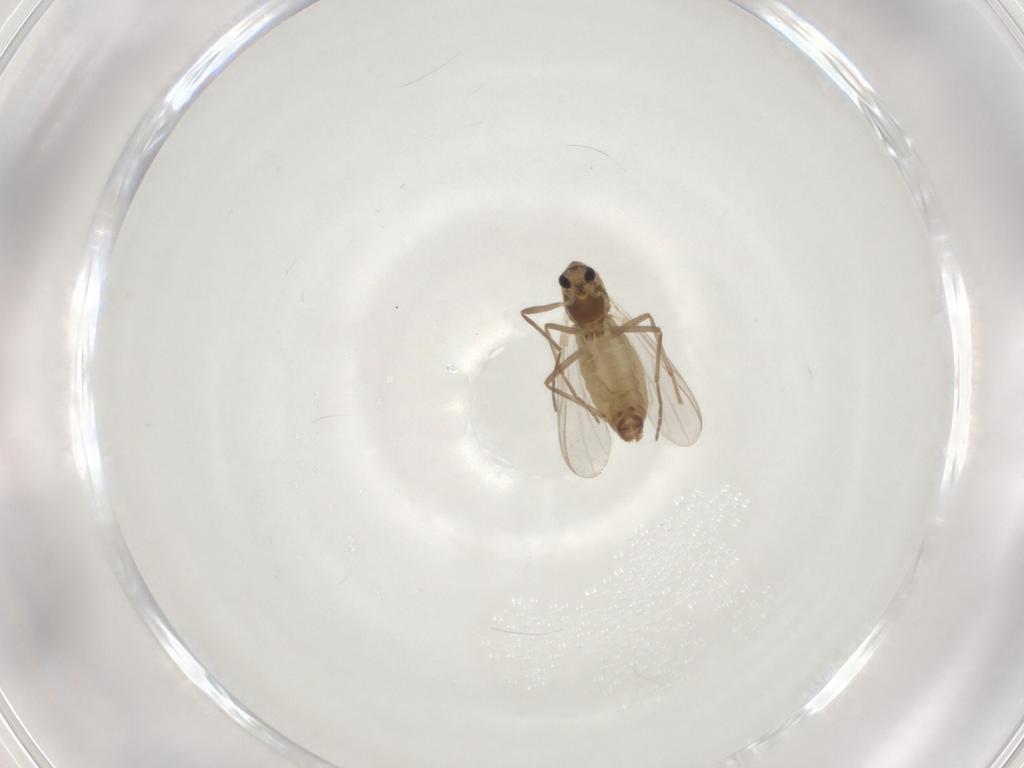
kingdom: Animalia
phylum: Arthropoda
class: Insecta
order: Diptera
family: Chironomidae
